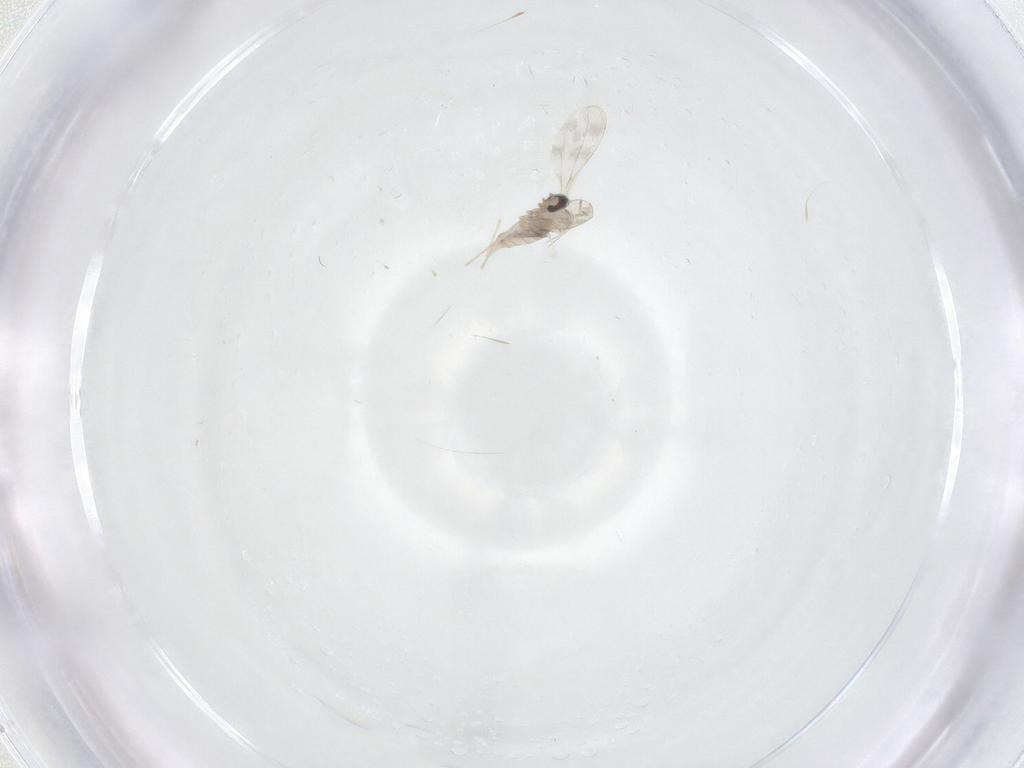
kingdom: Animalia
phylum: Arthropoda
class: Insecta
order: Diptera
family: Cecidomyiidae
